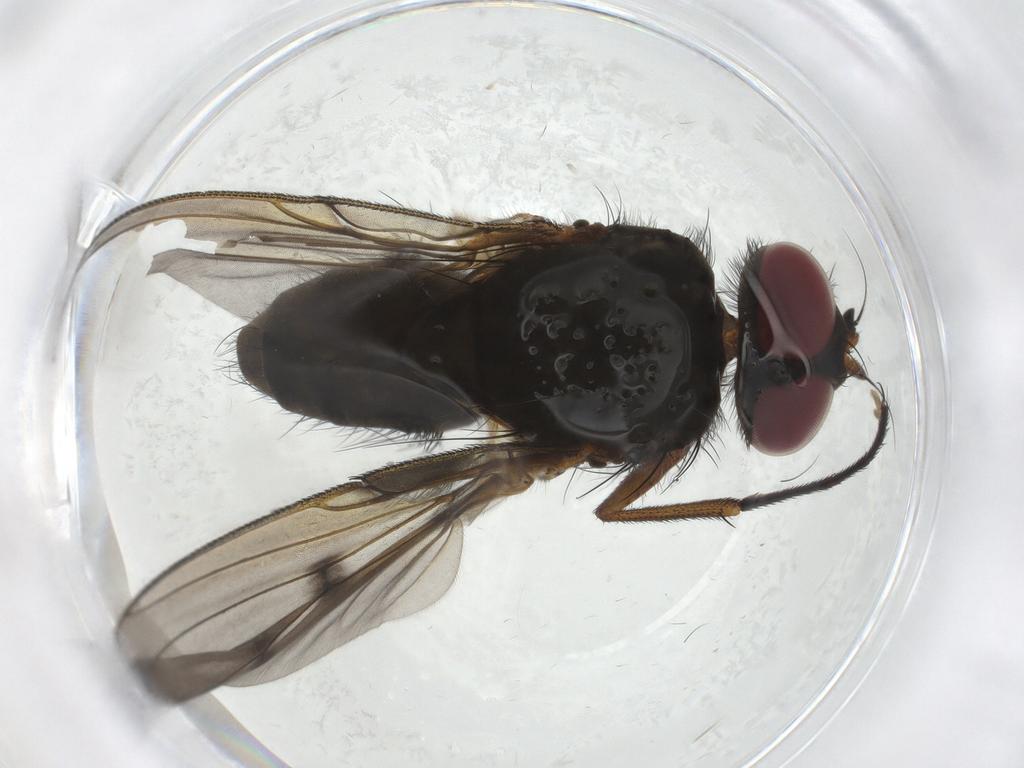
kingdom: Animalia
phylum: Arthropoda
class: Insecta
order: Diptera
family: Muscidae
